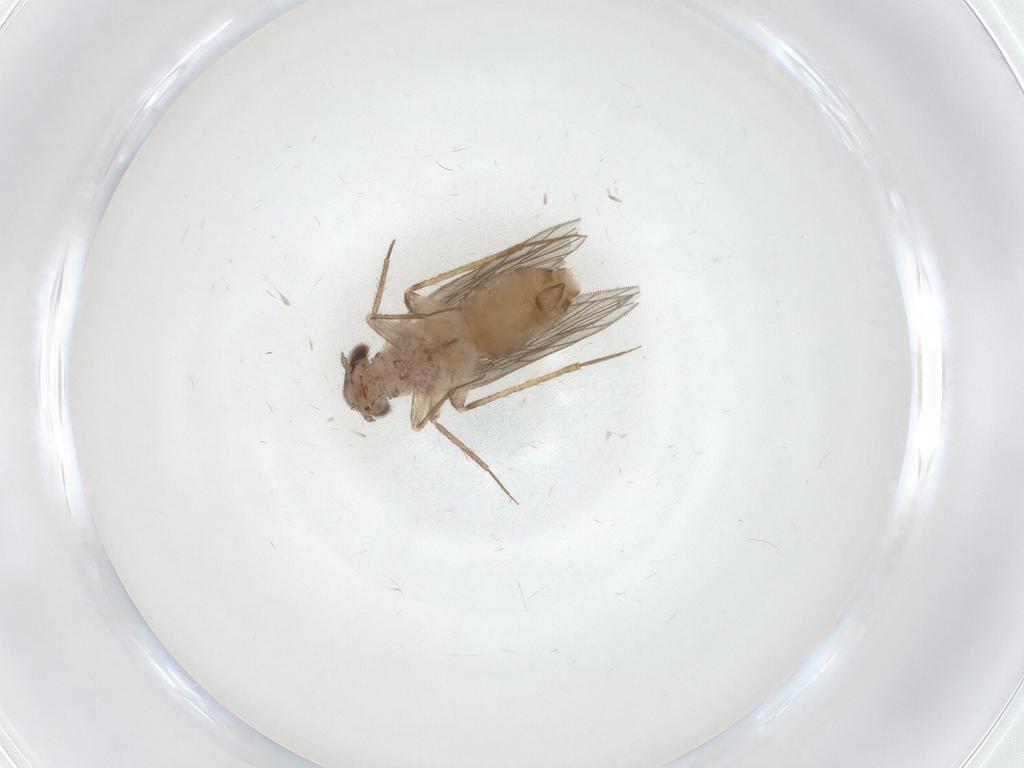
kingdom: Animalia
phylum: Arthropoda
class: Insecta
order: Psocodea
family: Lepidopsocidae
